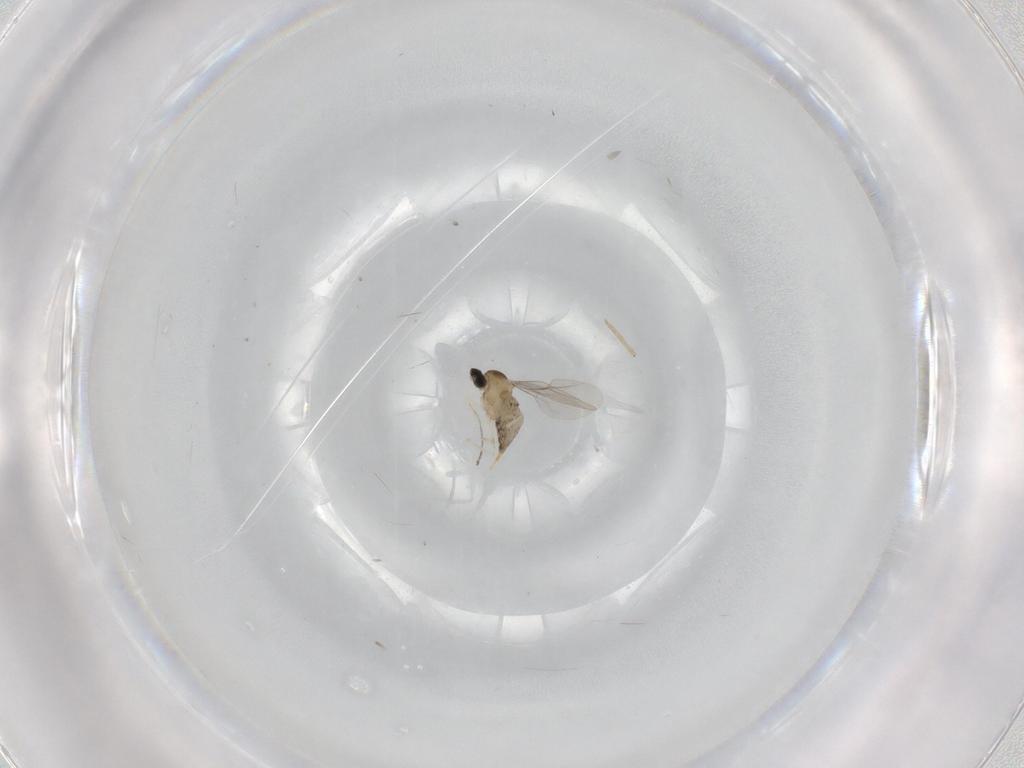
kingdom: Animalia
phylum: Arthropoda
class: Insecta
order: Diptera
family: Cecidomyiidae
